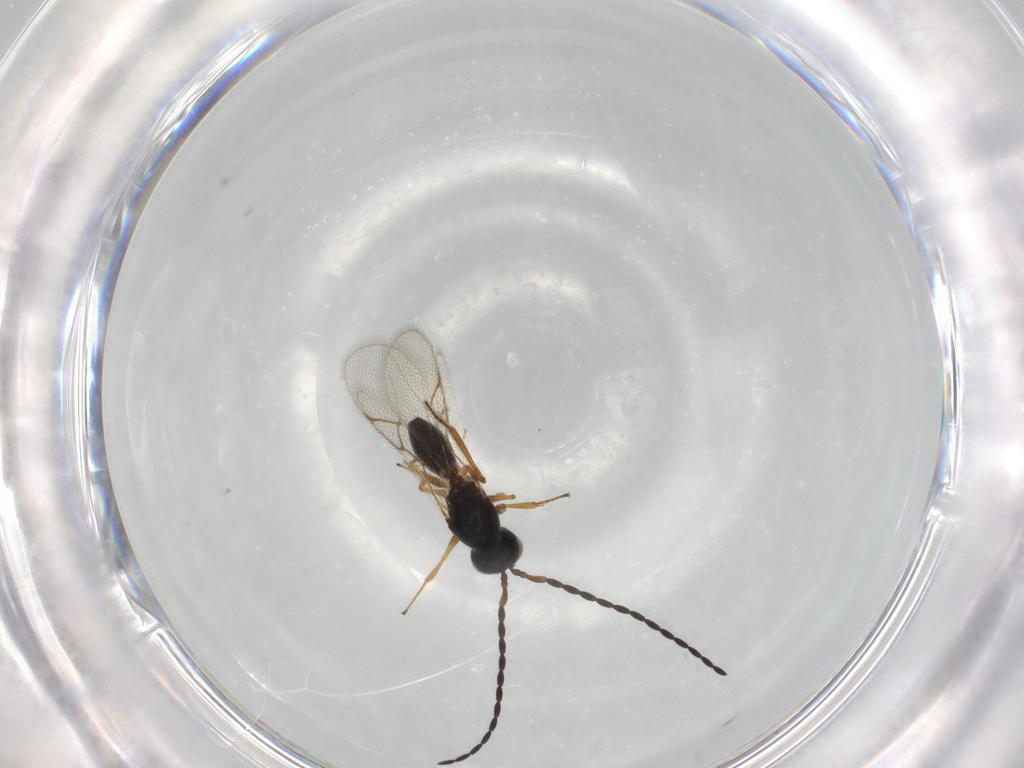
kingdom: Animalia
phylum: Arthropoda
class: Insecta
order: Hymenoptera
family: Figitidae
